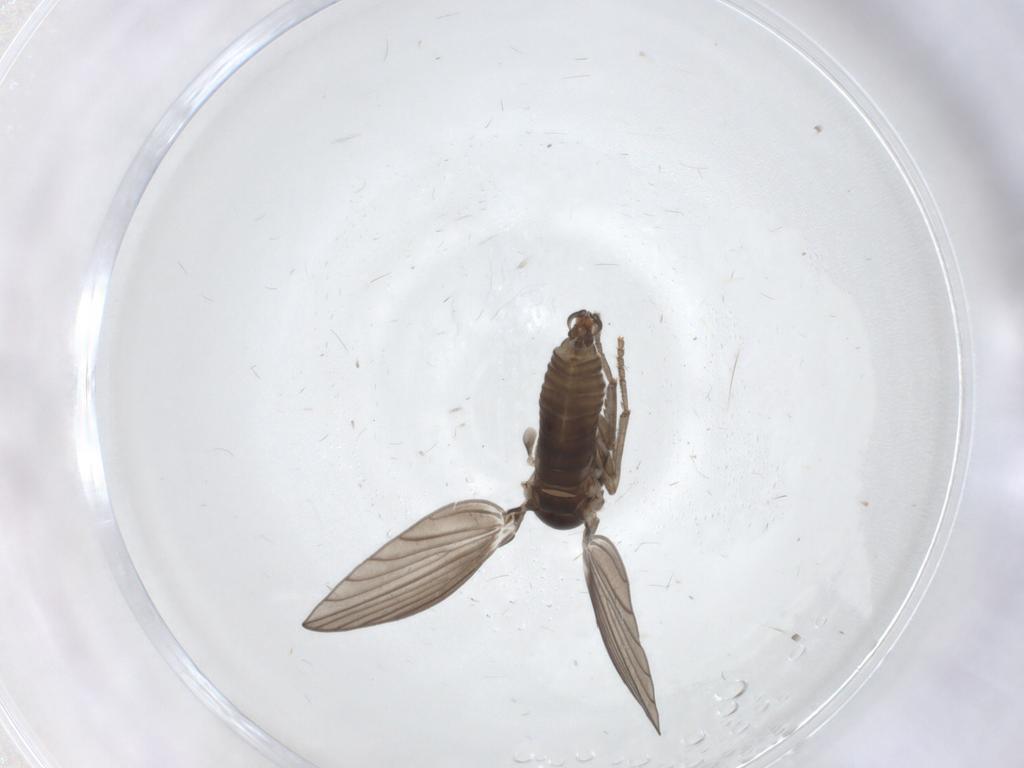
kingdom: Animalia
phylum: Arthropoda
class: Insecta
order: Diptera
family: Psychodidae
